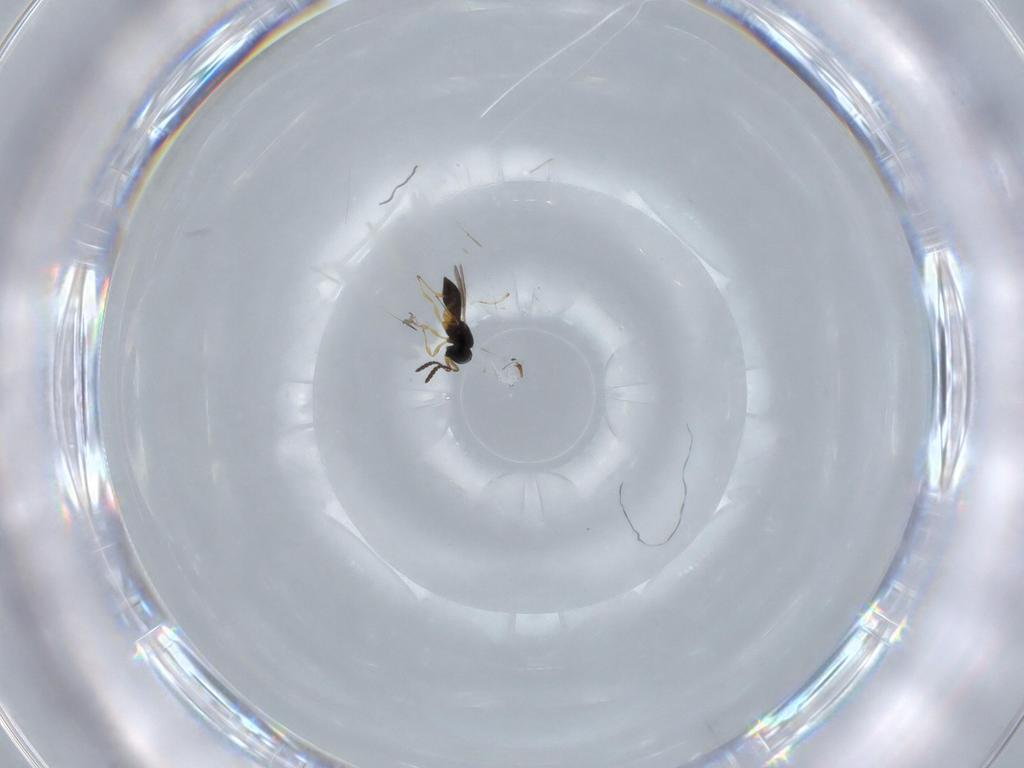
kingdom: Animalia
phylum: Arthropoda
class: Insecta
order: Hymenoptera
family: Scelionidae
